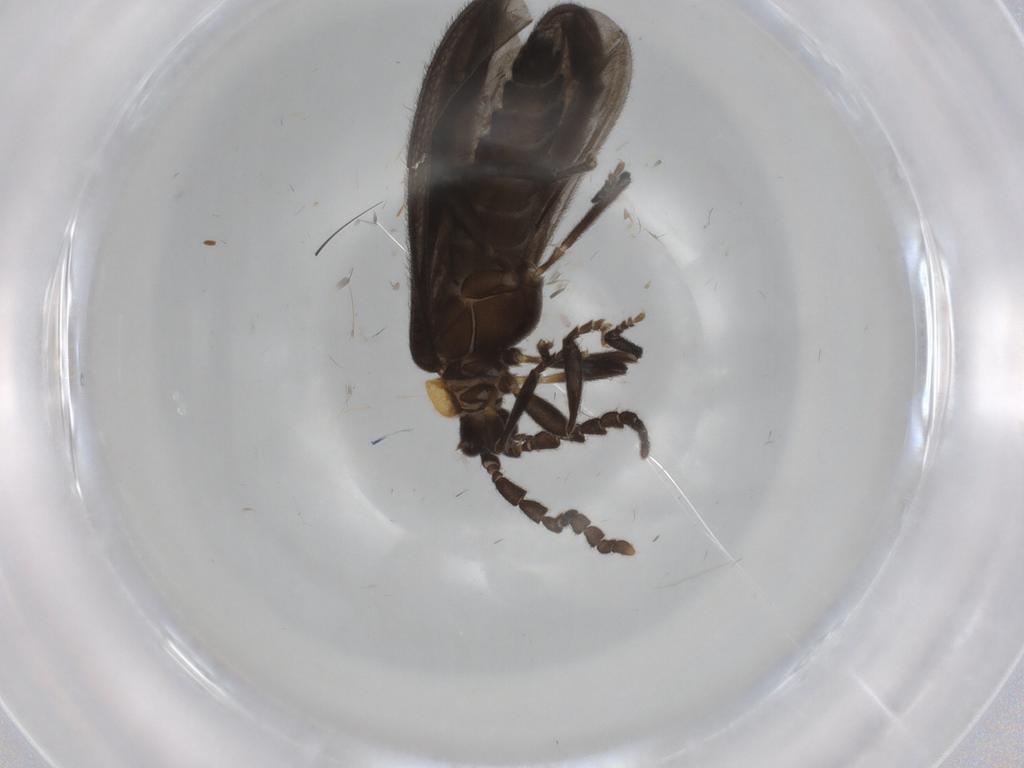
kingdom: Animalia
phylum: Arthropoda
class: Insecta
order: Coleoptera
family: Lycidae
